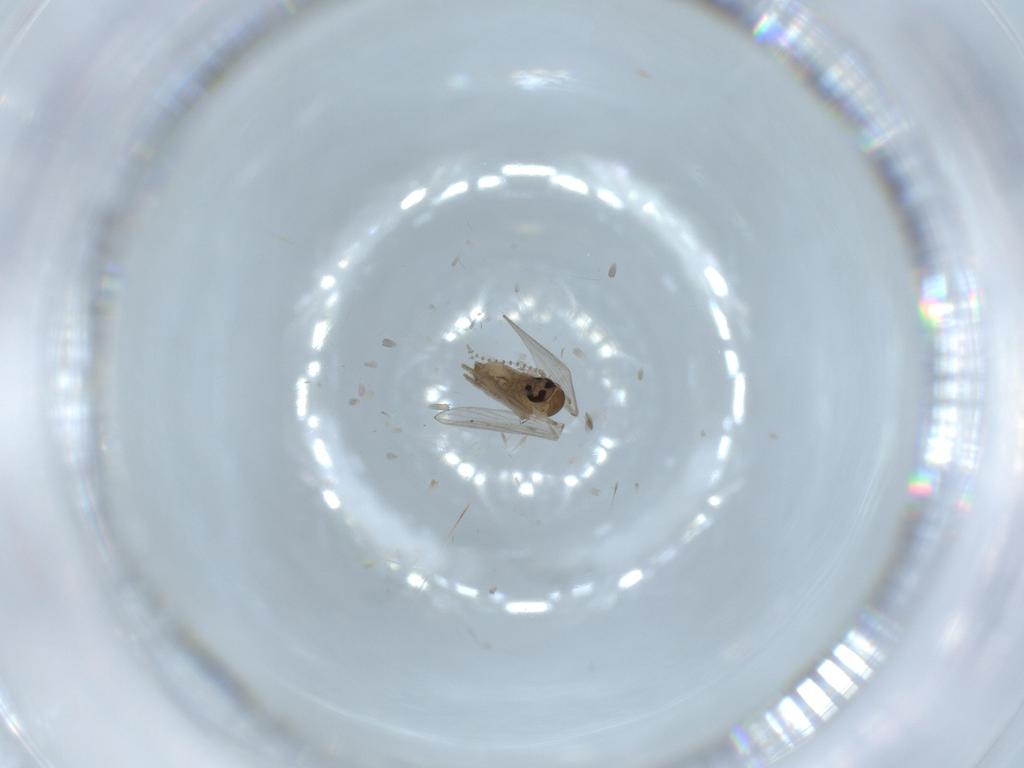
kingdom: Animalia
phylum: Arthropoda
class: Insecta
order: Diptera
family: Psychodidae
